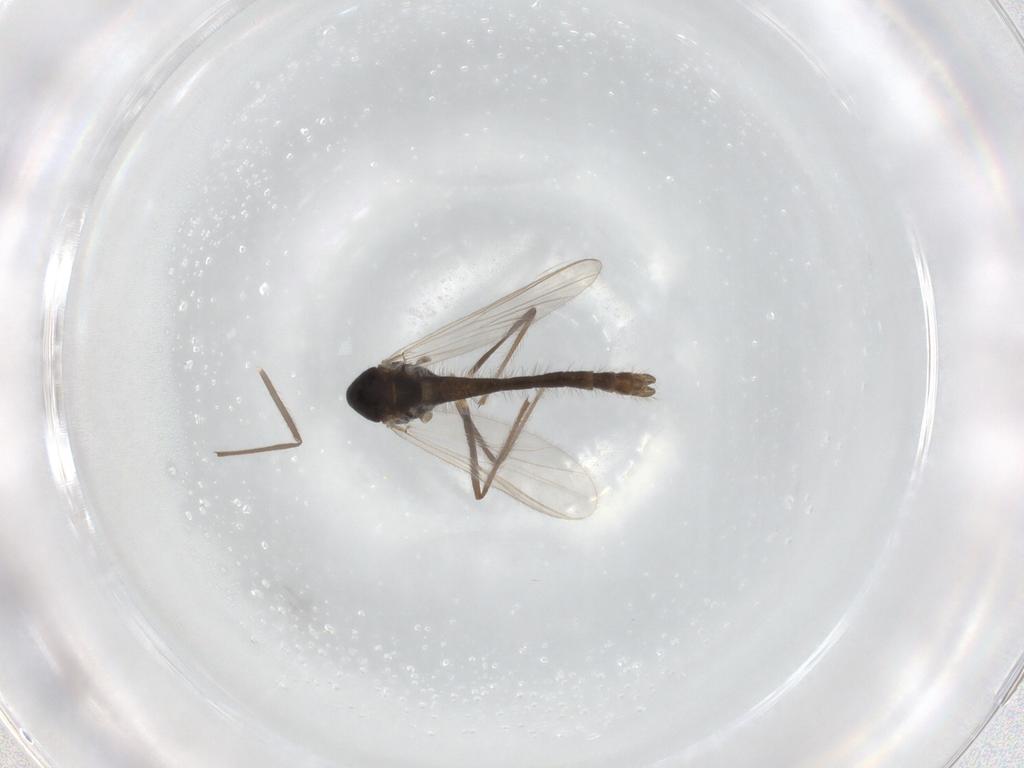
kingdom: Animalia
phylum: Arthropoda
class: Insecta
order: Diptera
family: Chironomidae
